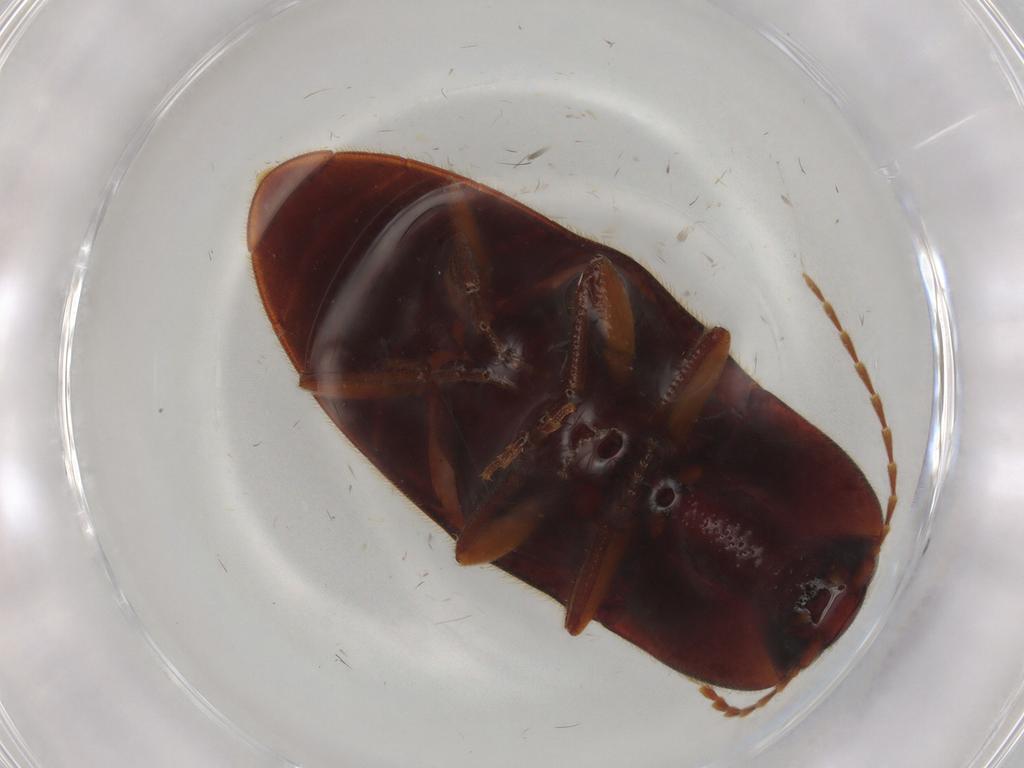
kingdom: Animalia
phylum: Arthropoda
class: Insecta
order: Coleoptera
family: Elateridae
